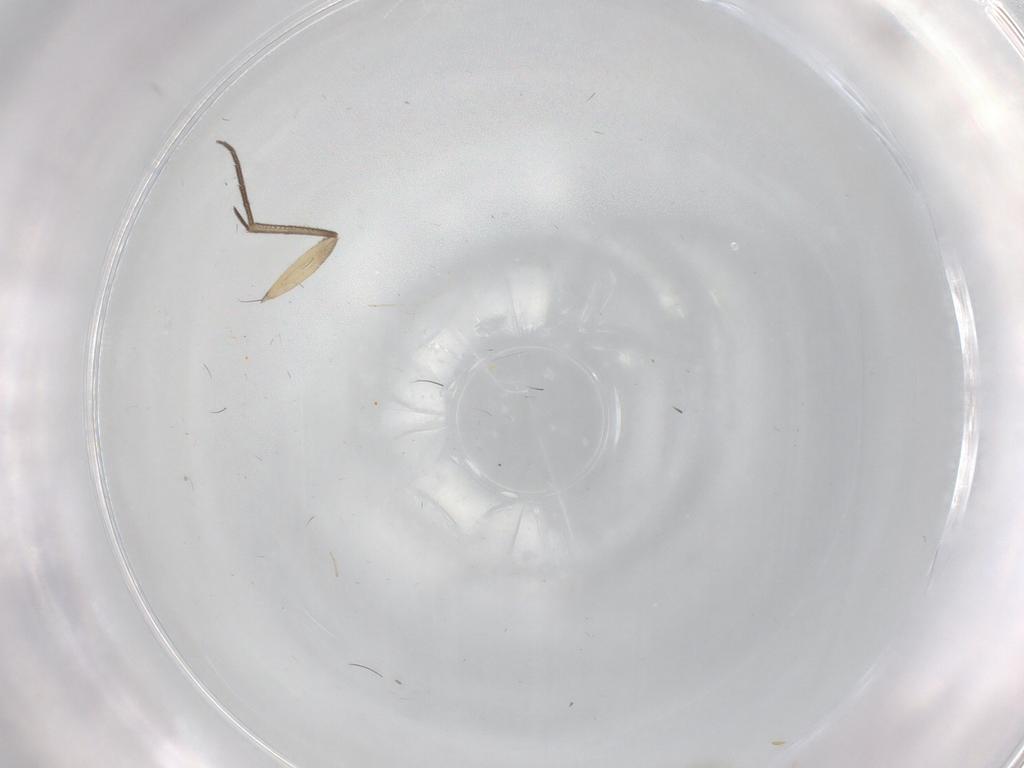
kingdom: Animalia
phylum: Arthropoda
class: Insecta
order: Diptera
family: Mycetophilidae
